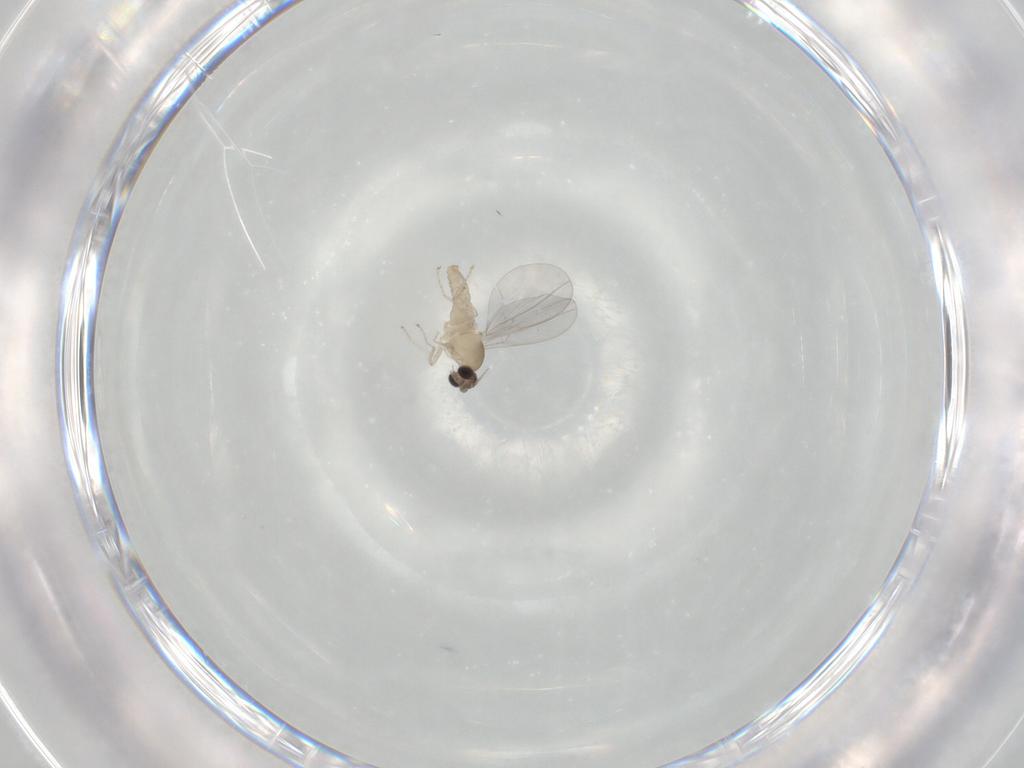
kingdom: Animalia
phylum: Arthropoda
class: Insecta
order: Diptera
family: Cecidomyiidae
